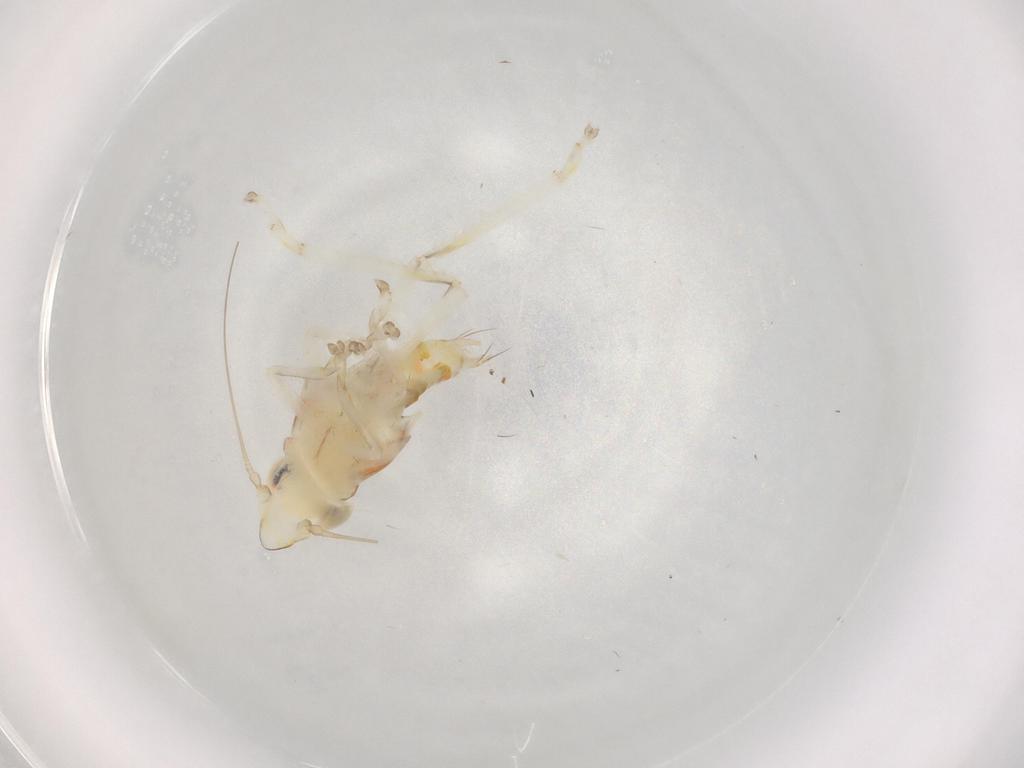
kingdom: Animalia
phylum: Arthropoda
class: Insecta
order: Hemiptera
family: Cicadellidae
